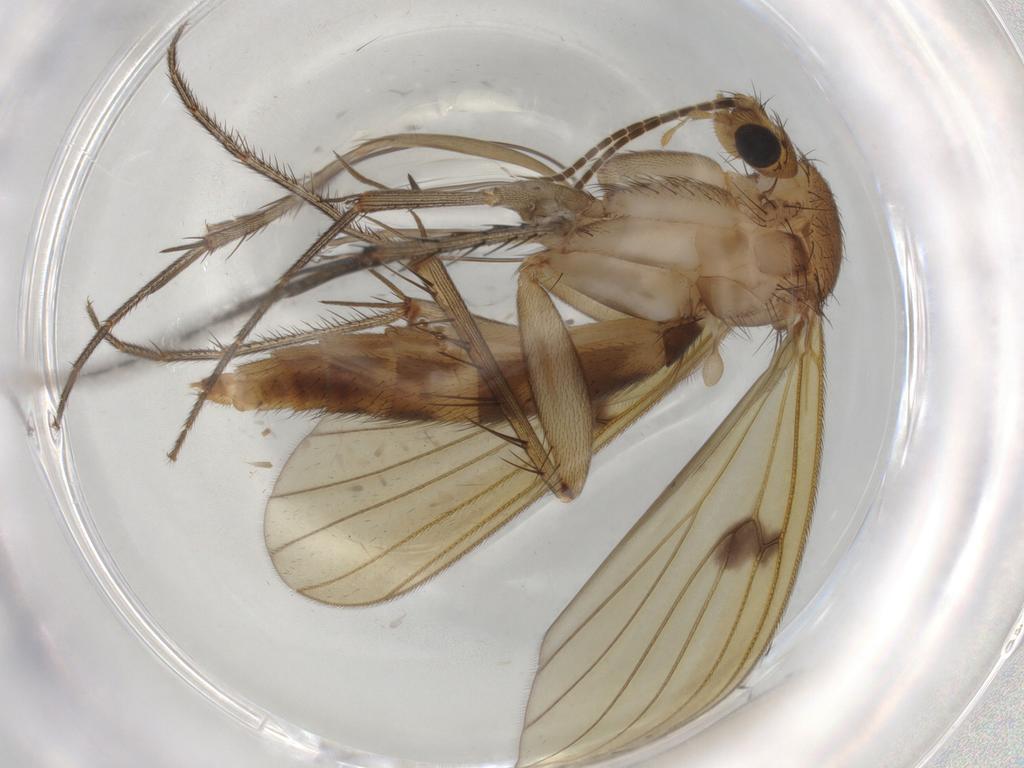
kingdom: Animalia
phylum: Arthropoda
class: Insecta
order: Diptera
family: Mycetophilidae
